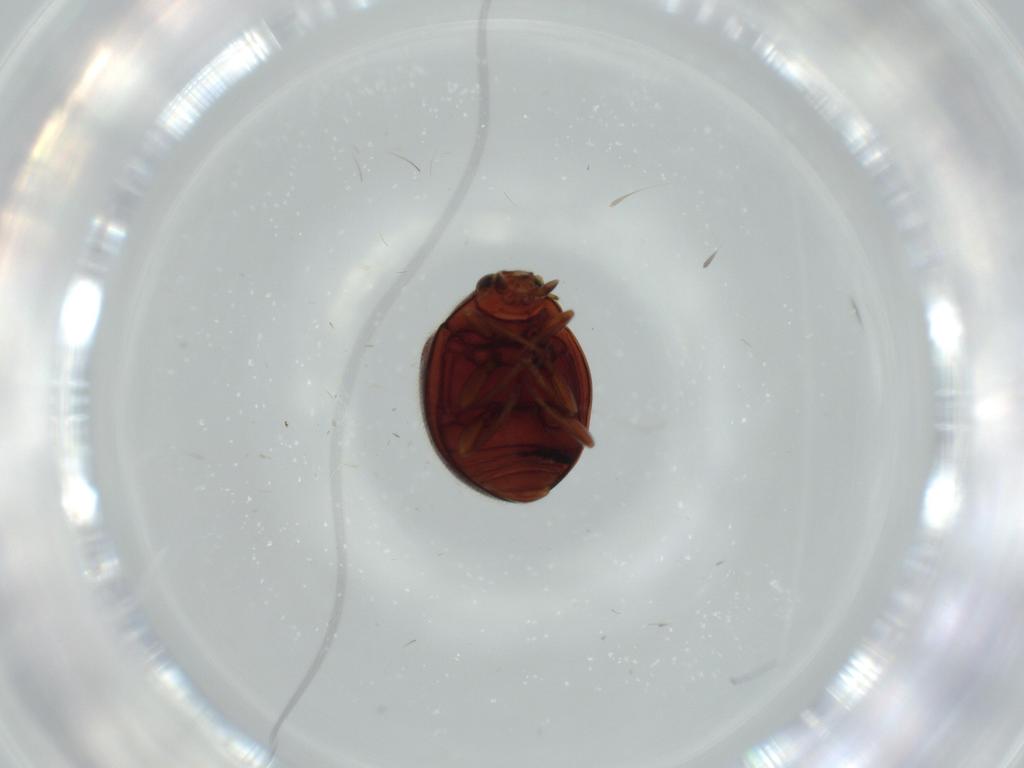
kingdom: Animalia
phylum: Arthropoda
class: Insecta
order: Coleoptera
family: Coccinellidae
